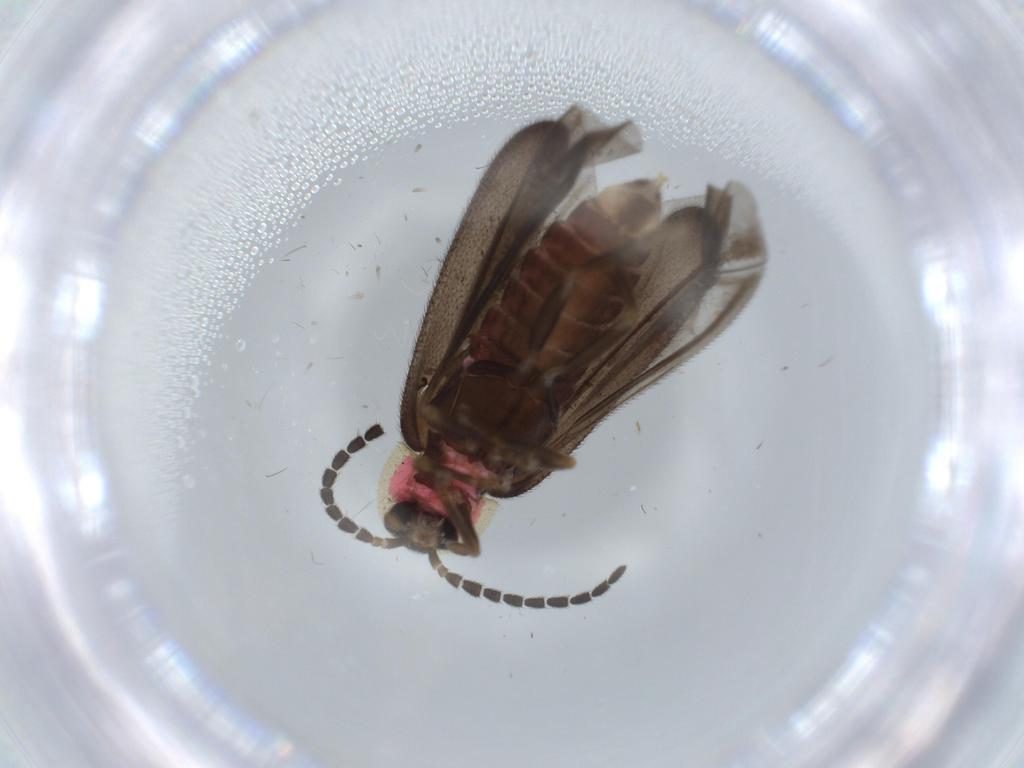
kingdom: Animalia
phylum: Arthropoda
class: Insecta
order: Coleoptera
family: Lampyridae
